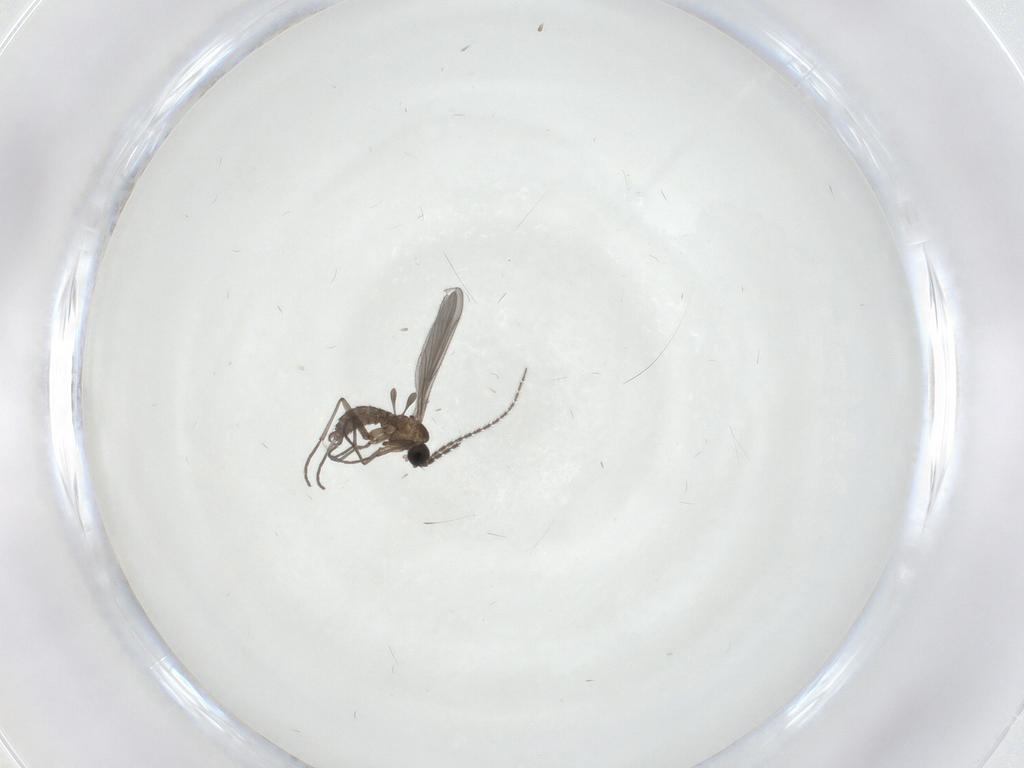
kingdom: Animalia
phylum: Arthropoda
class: Insecta
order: Diptera
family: Sciaridae
